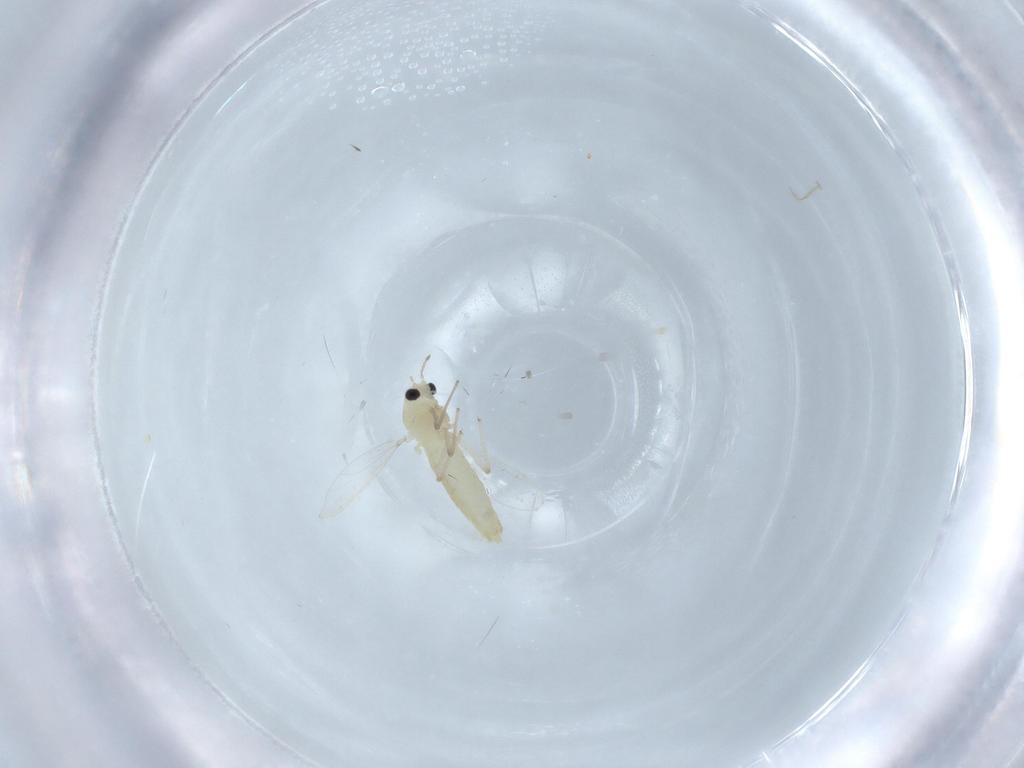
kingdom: Animalia
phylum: Arthropoda
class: Insecta
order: Diptera
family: Chironomidae
